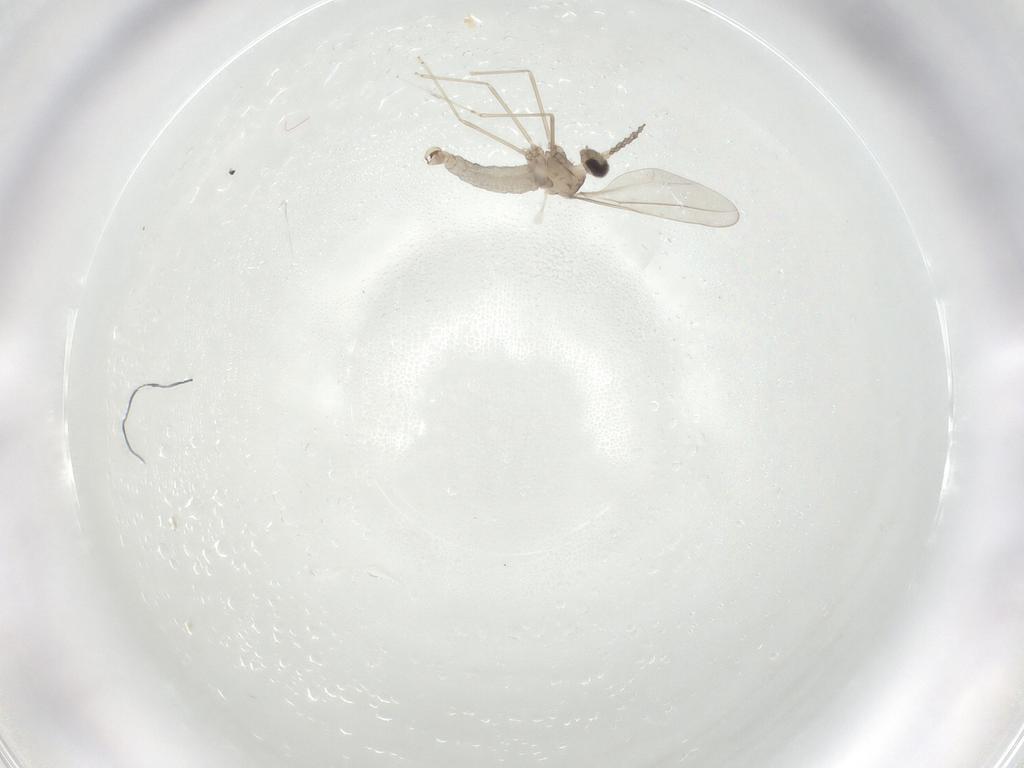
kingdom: Animalia
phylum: Arthropoda
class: Insecta
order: Diptera
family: Cecidomyiidae
